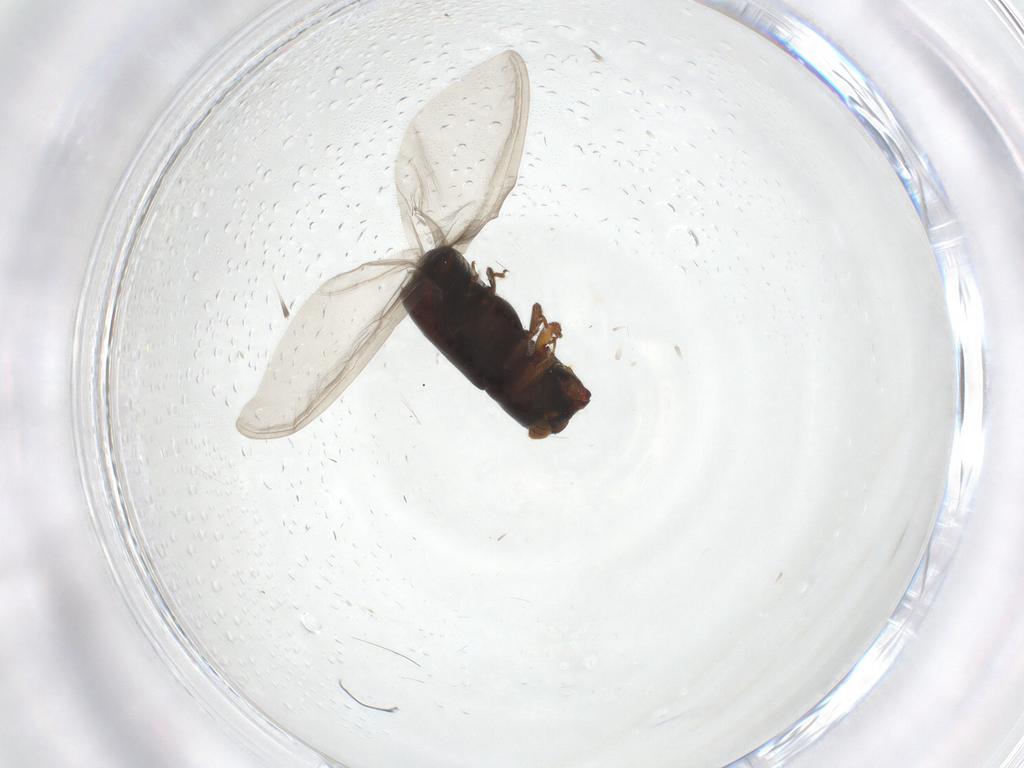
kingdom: Animalia
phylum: Arthropoda
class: Insecta
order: Coleoptera
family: Curculionidae
